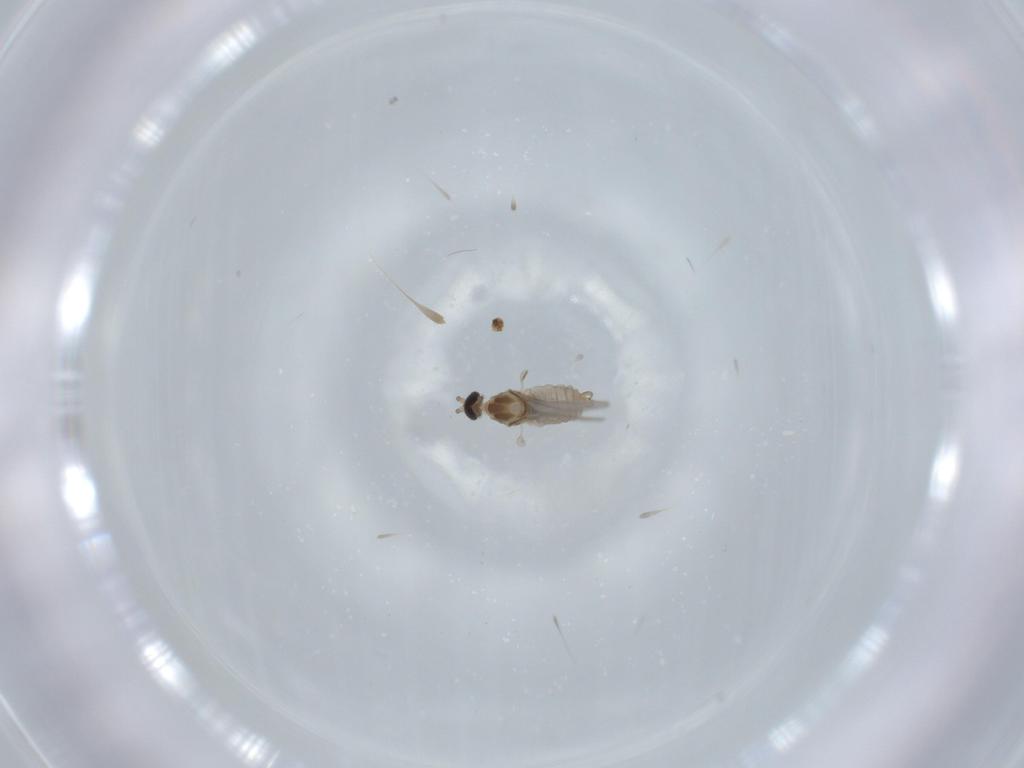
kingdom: Animalia
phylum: Arthropoda
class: Insecta
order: Diptera
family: Cecidomyiidae
